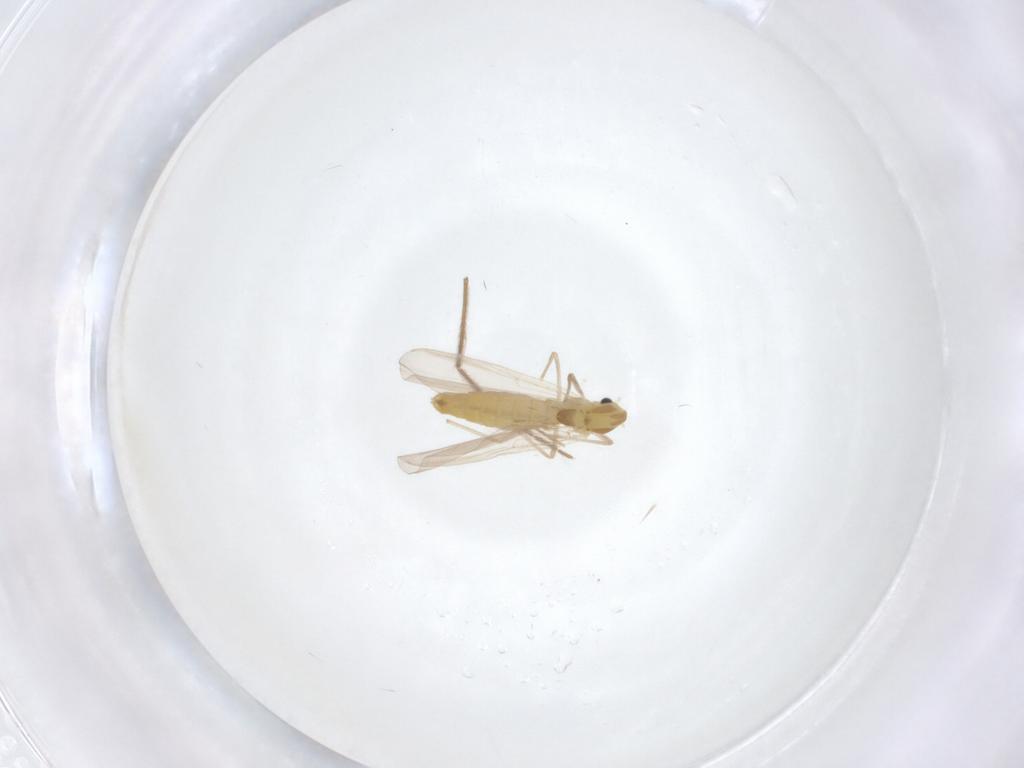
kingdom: Animalia
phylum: Arthropoda
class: Insecta
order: Diptera
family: Chironomidae
